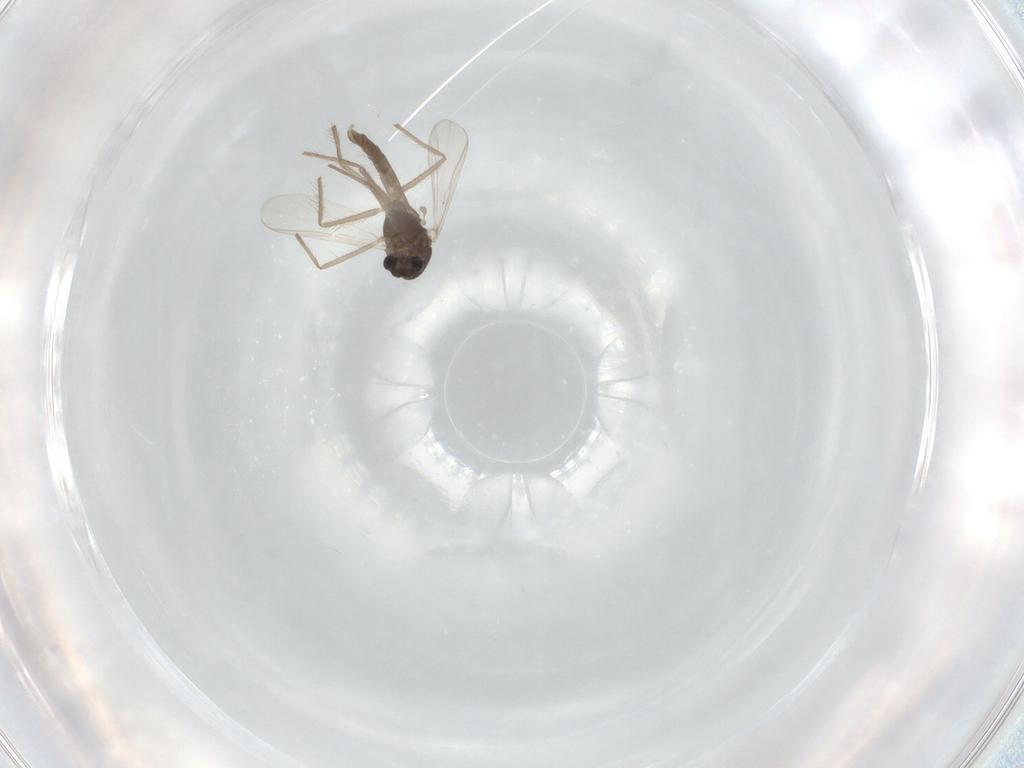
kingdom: Animalia
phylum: Arthropoda
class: Insecta
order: Diptera
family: Chironomidae
